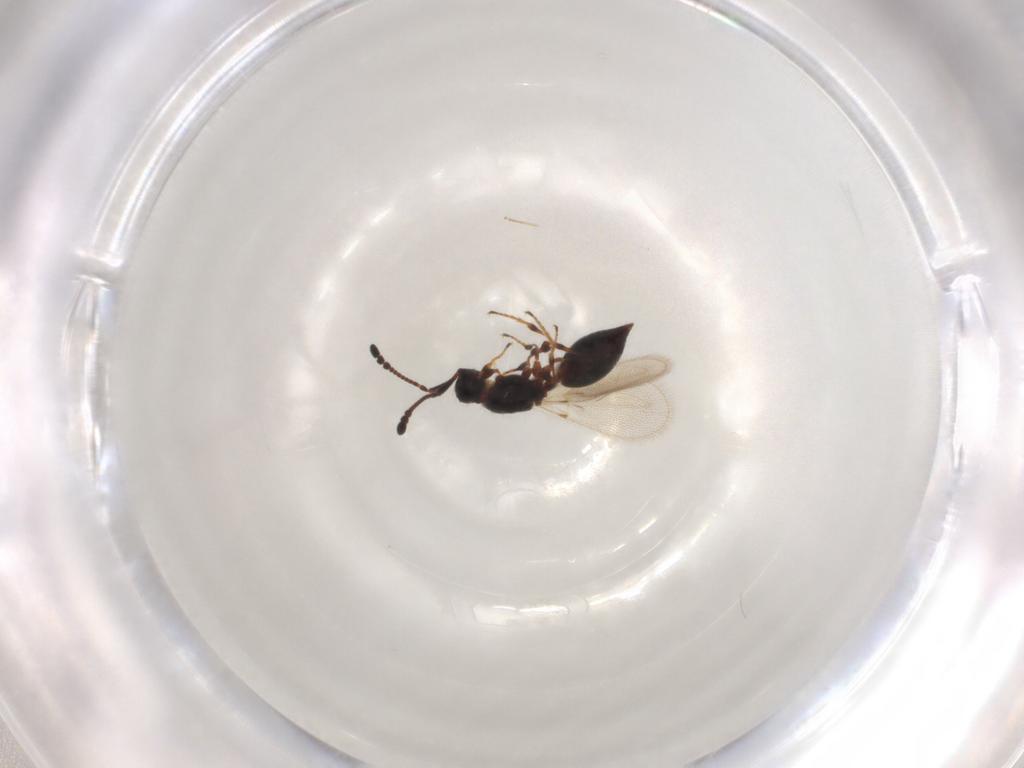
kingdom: Animalia
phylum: Arthropoda
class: Insecta
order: Hymenoptera
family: Diapriidae
